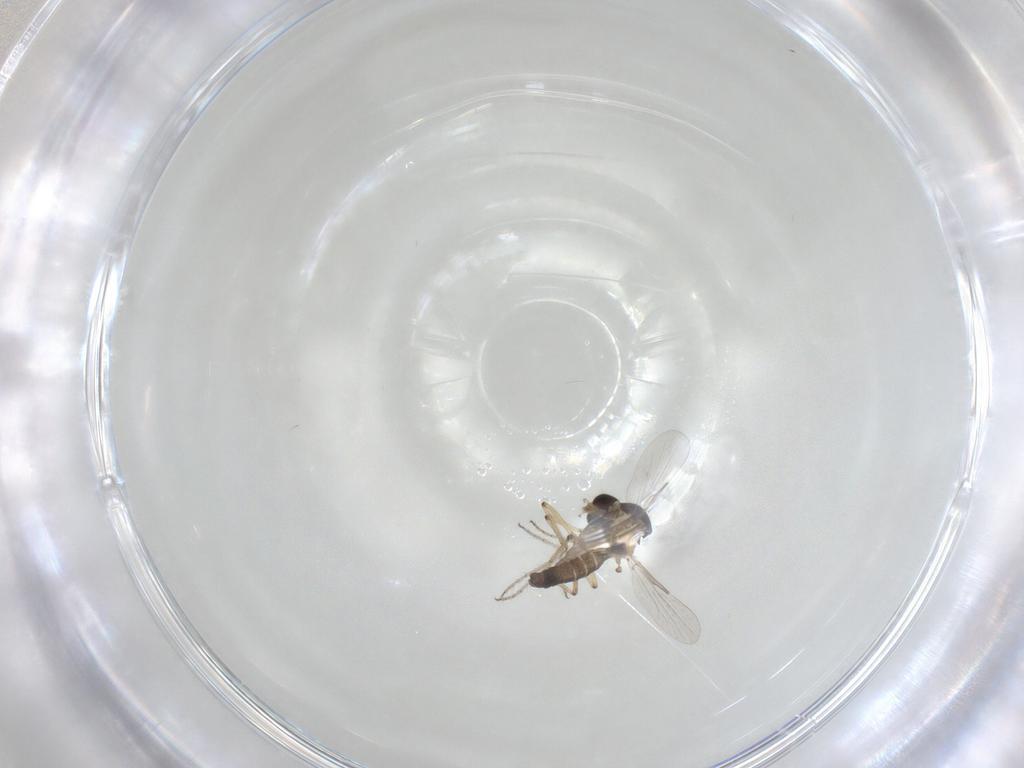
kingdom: Animalia
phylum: Arthropoda
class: Insecta
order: Diptera
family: Ceratopogonidae
